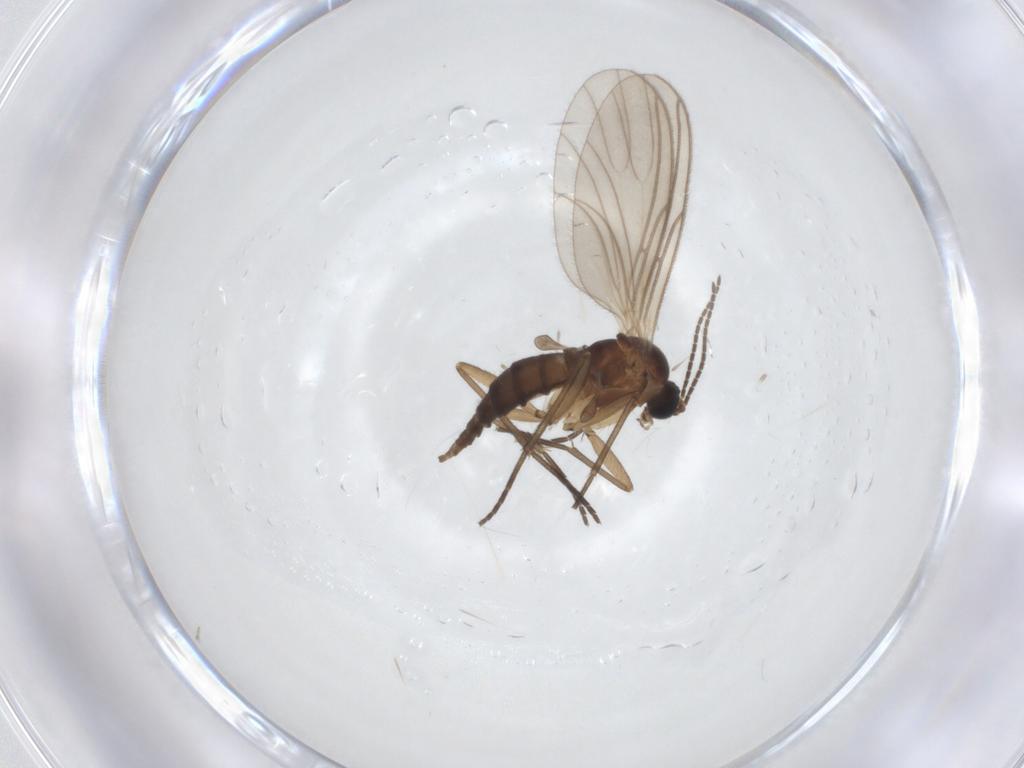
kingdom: Animalia
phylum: Arthropoda
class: Insecta
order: Diptera
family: Sciaridae
